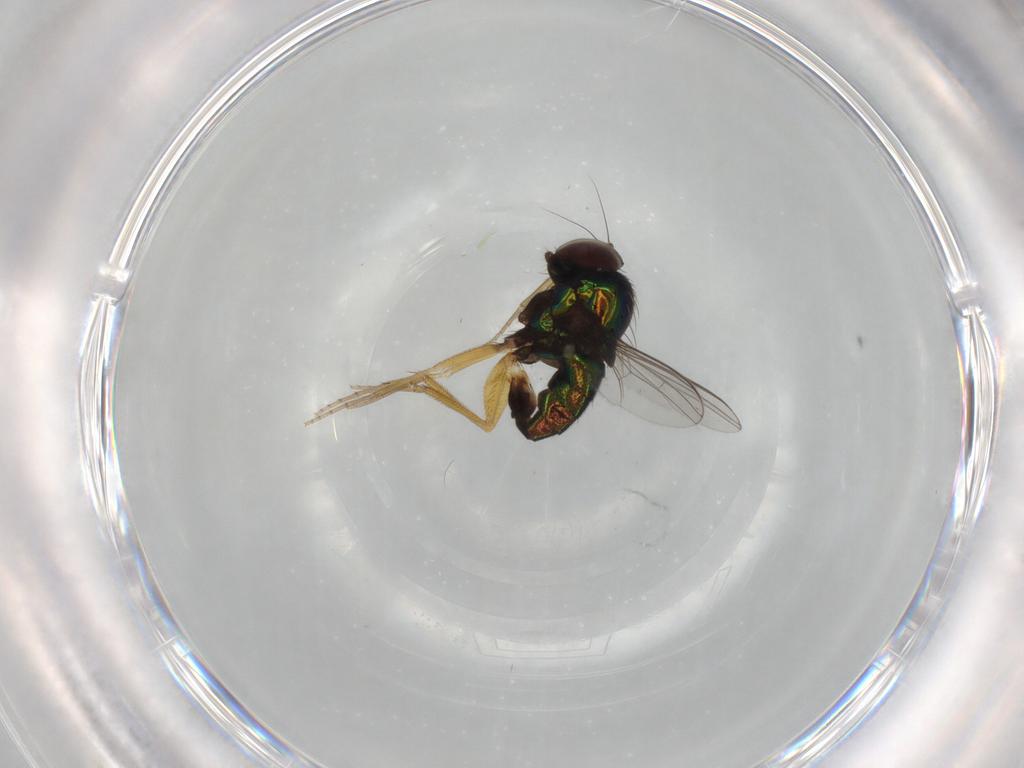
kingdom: Animalia
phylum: Arthropoda
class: Insecta
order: Diptera
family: Dolichopodidae
